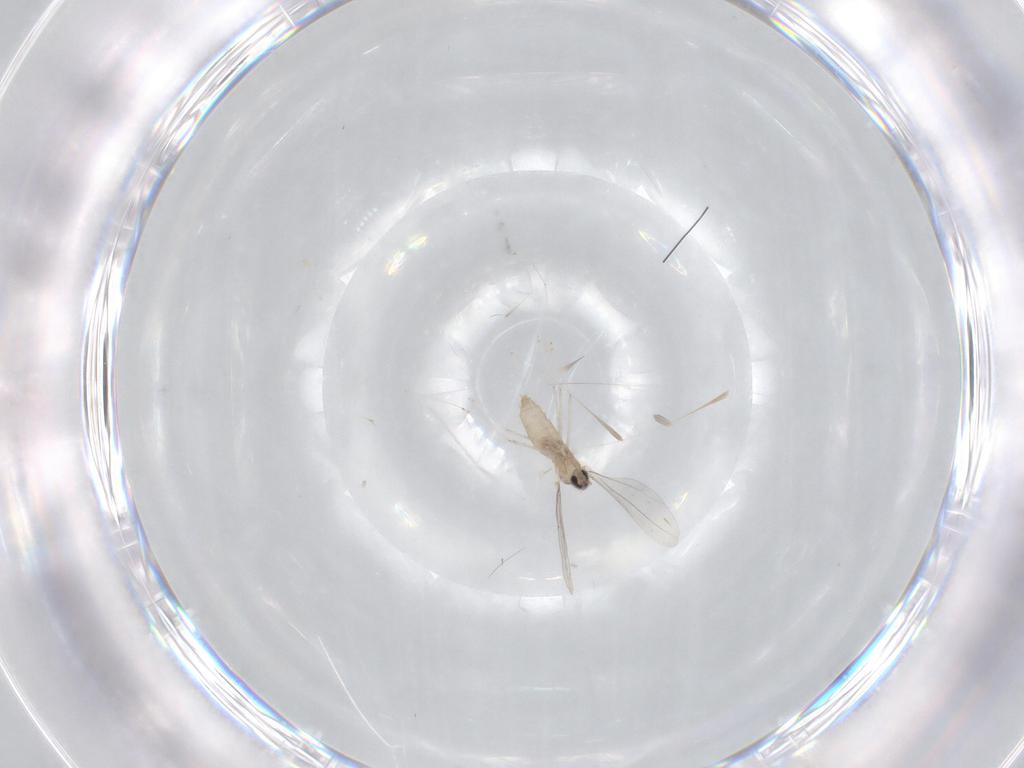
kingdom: Animalia
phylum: Arthropoda
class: Insecta
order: Diptera
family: Cecidomyiidae
